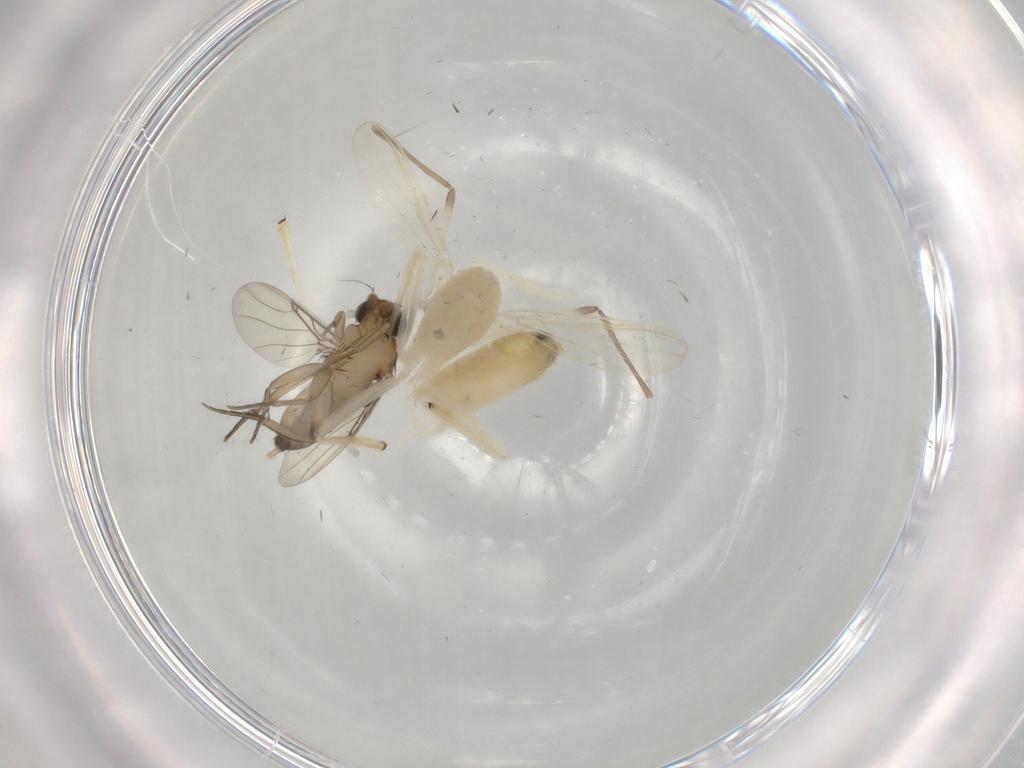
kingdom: Animalia
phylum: Arthropoda
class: Insecta
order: Diptera
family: Chironomidae
